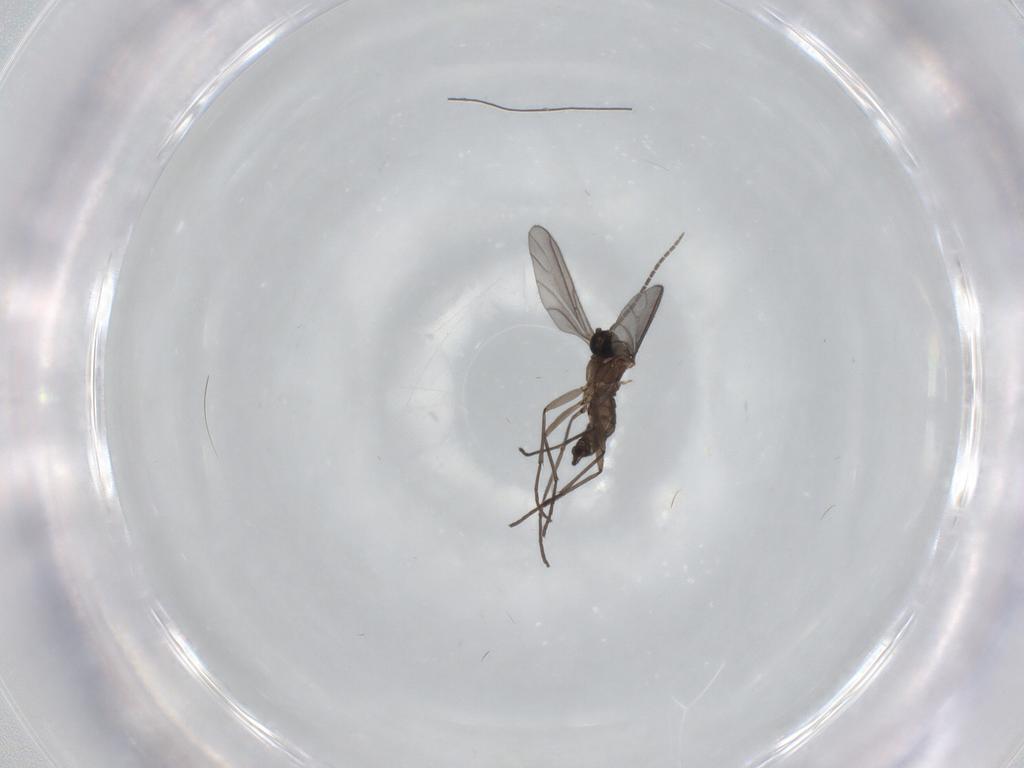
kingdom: Animalia
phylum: Arthropoda
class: Insecta
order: Diptera
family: Sciaridae
